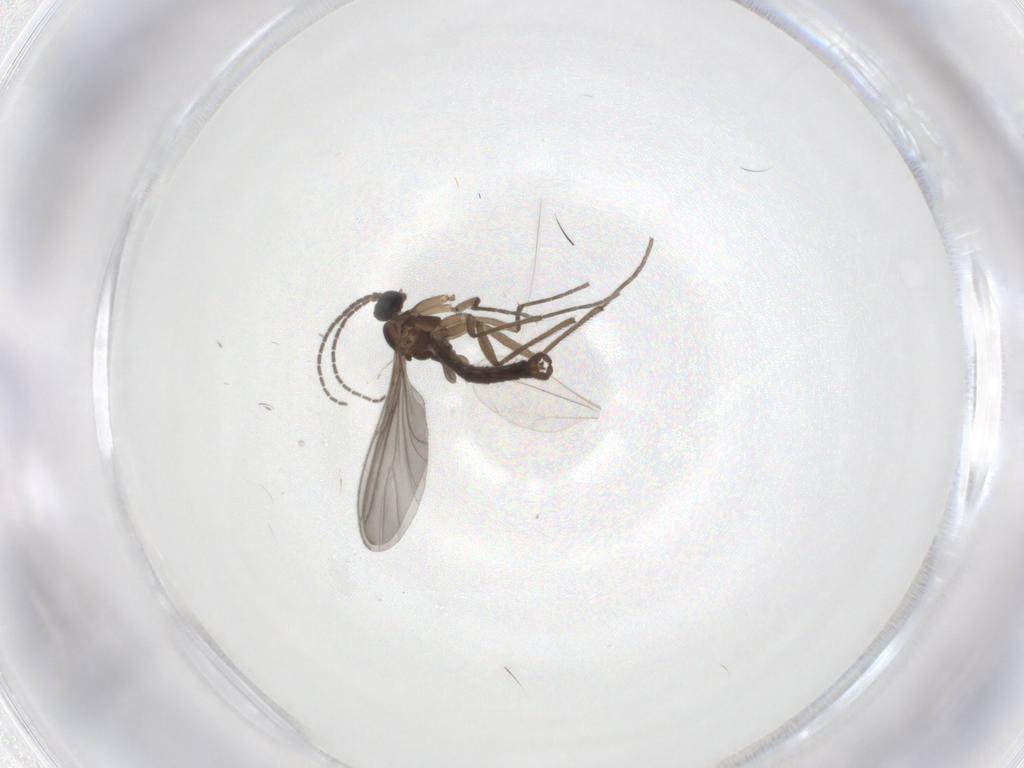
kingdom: Animalia
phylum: Arthropoda
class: Insecta
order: Diptera
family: Sciaridae
